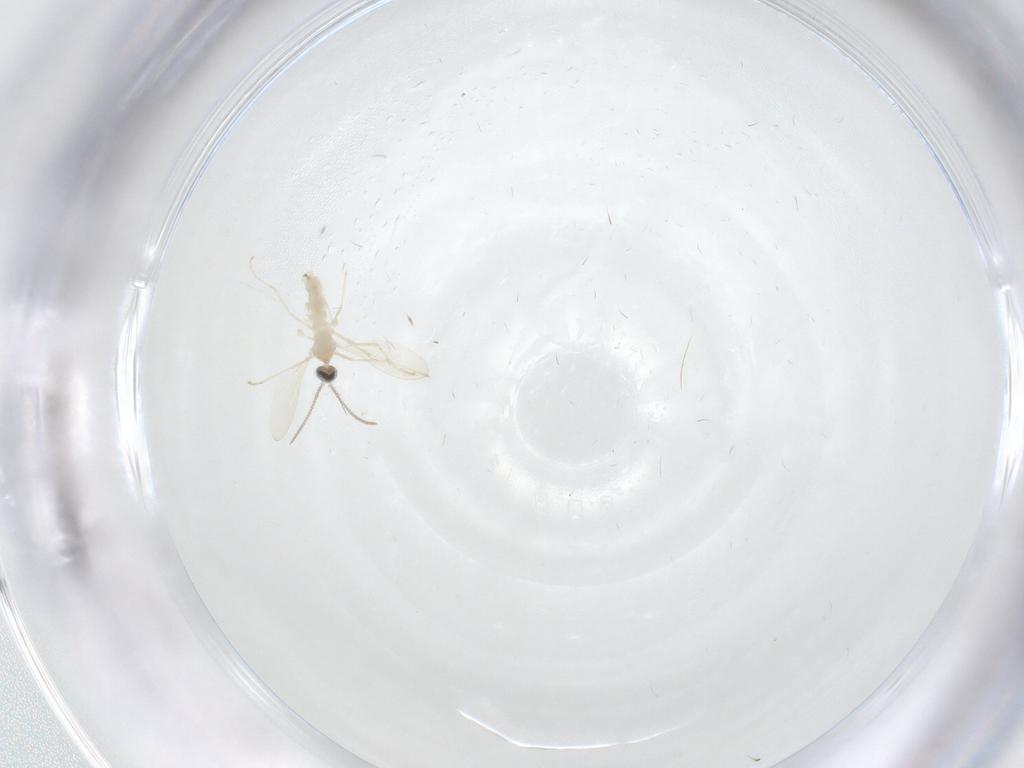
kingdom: Animalia
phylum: Arthropoda
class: Insecta
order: Diptera
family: Cecidomyiidae
